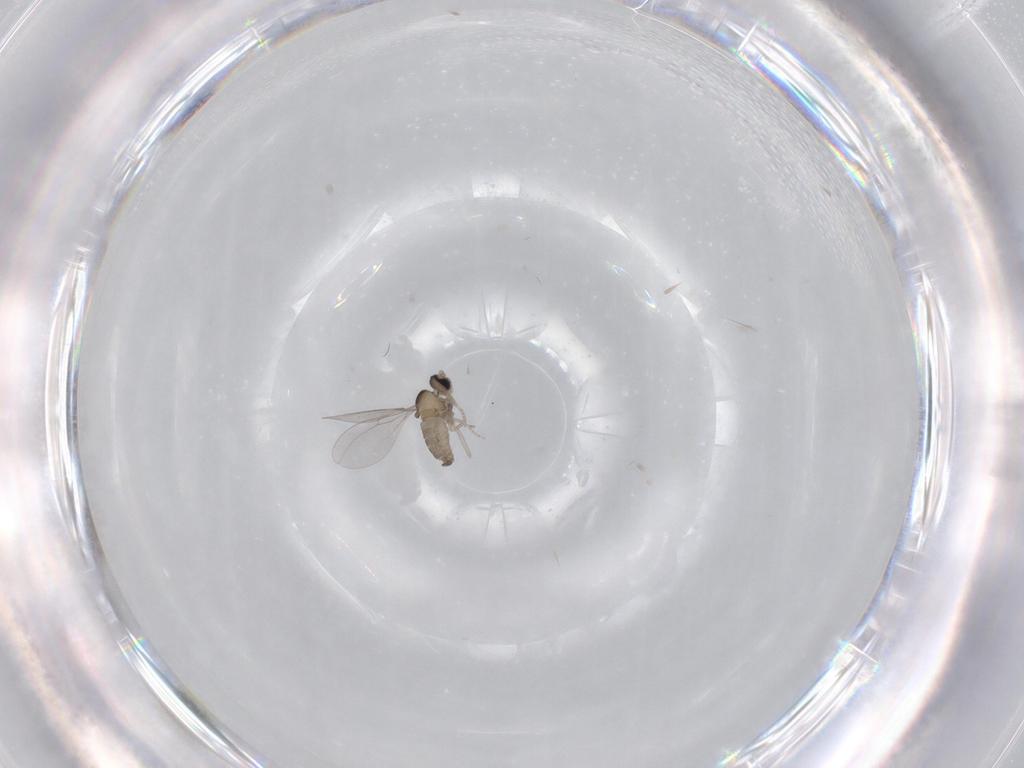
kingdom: Animalia
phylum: Arthropoda
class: Insecta
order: Diptera
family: Cecidomyiidae
